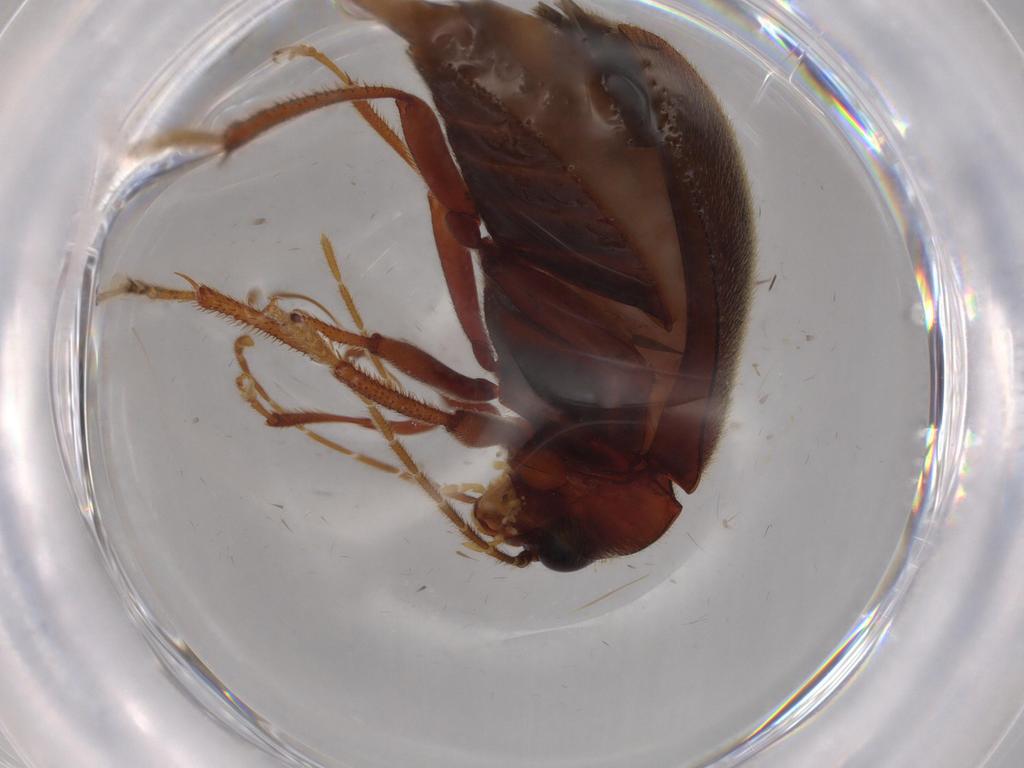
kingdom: Animalia
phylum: Arthropoda
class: Insecta
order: Coleoptera
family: Ptilodactylidae
